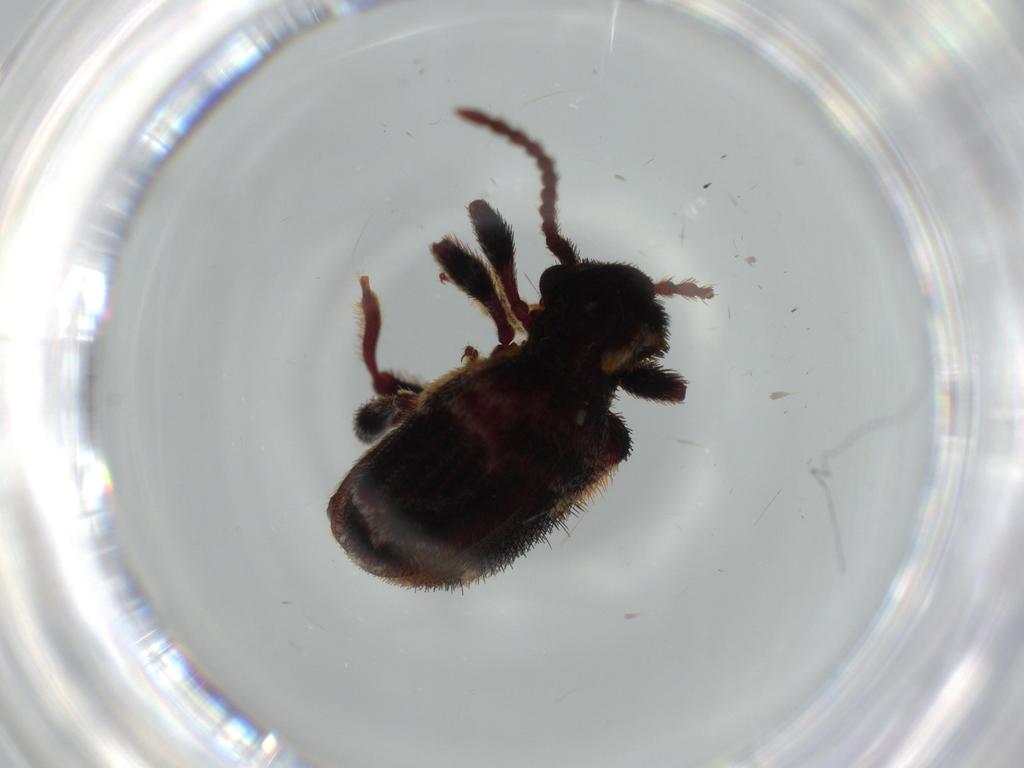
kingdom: Animalia
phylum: Arthropoda
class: Insecta
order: Coleoptera
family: Ptinidae
